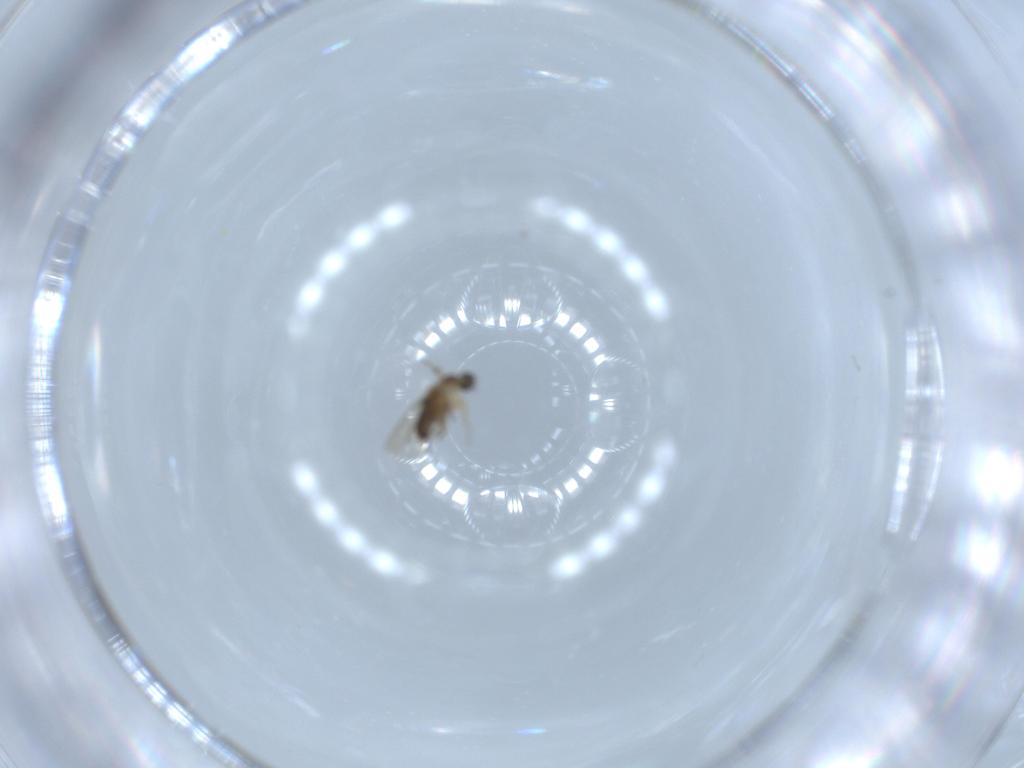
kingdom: Animalia
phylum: Arthropoda
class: Insecta
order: Diptera
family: Phoridae
